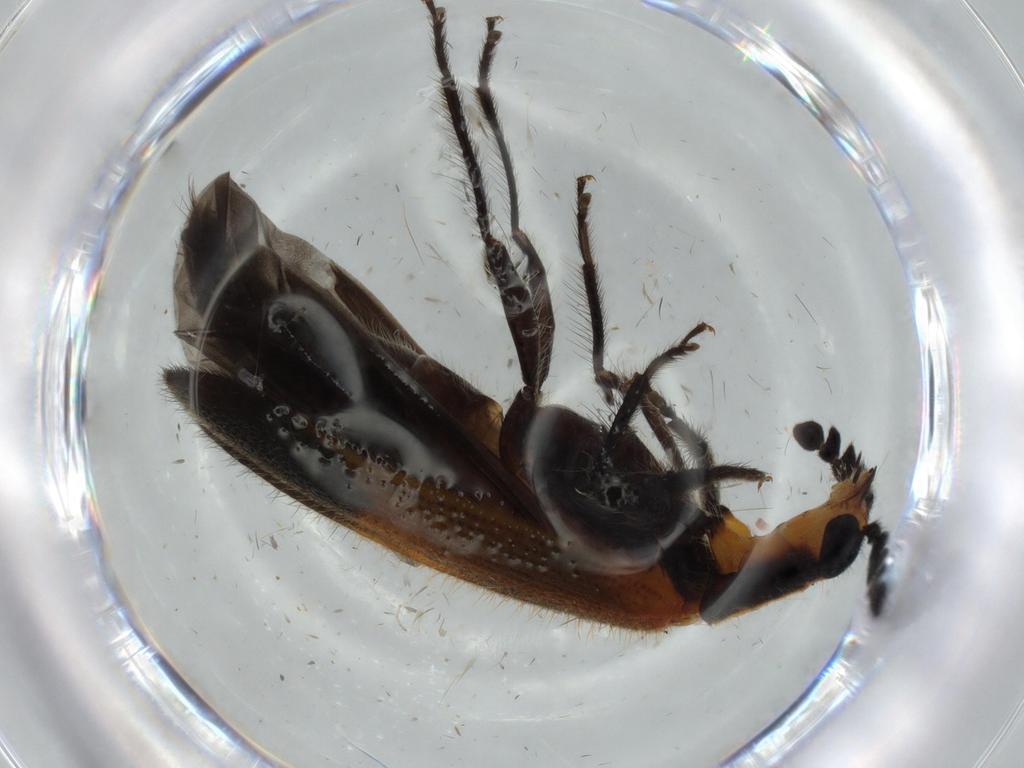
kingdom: Animalia
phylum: Arthropoda
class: Insecta
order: Coleoptera
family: Cleridae
